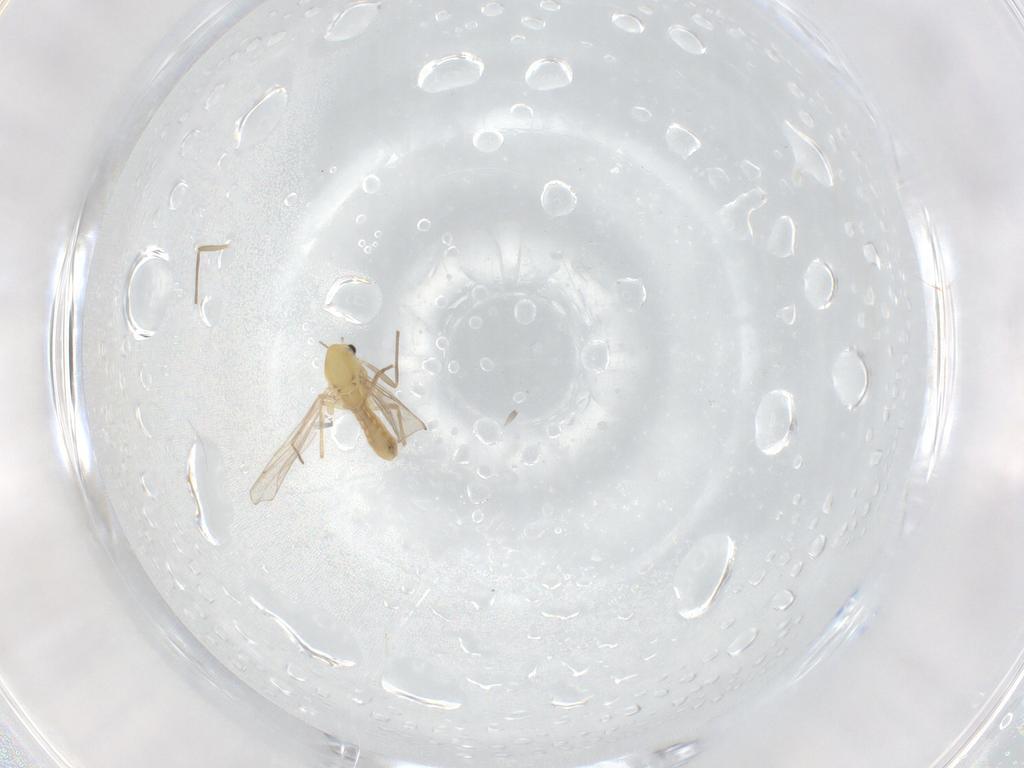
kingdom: Animalia
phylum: Arthropoda
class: Insecta
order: Diptera
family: Chironomidae
